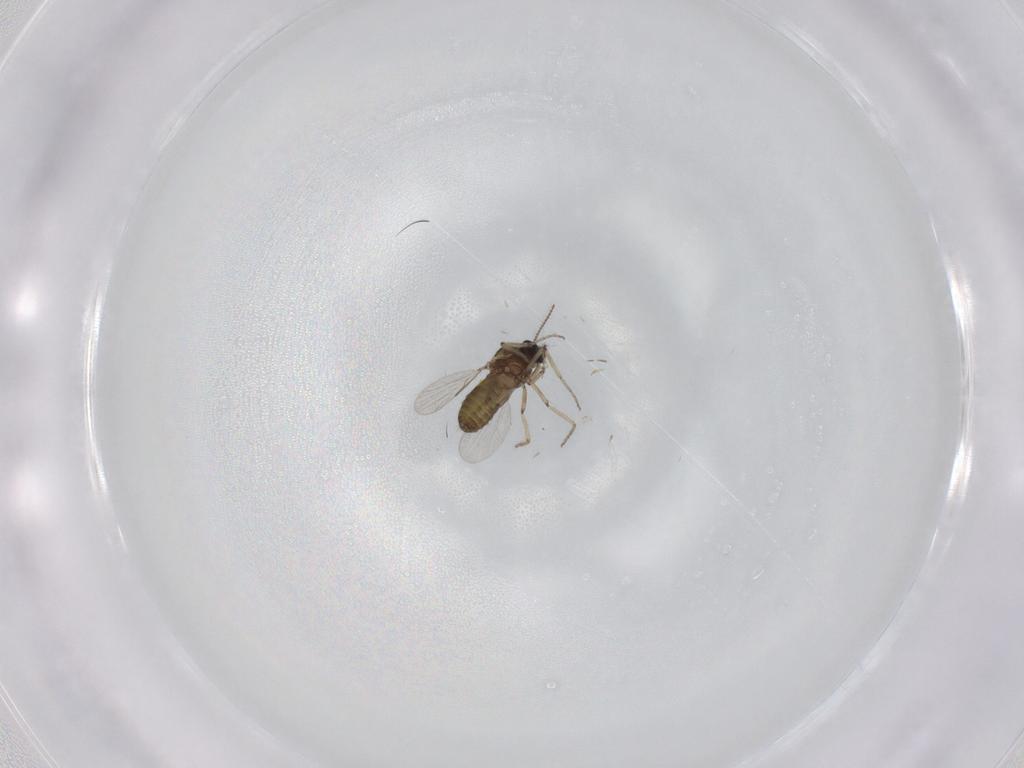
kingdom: Animalia
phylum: Arthropoda
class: Insecta
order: Diptera
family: Ceratopogonidae
